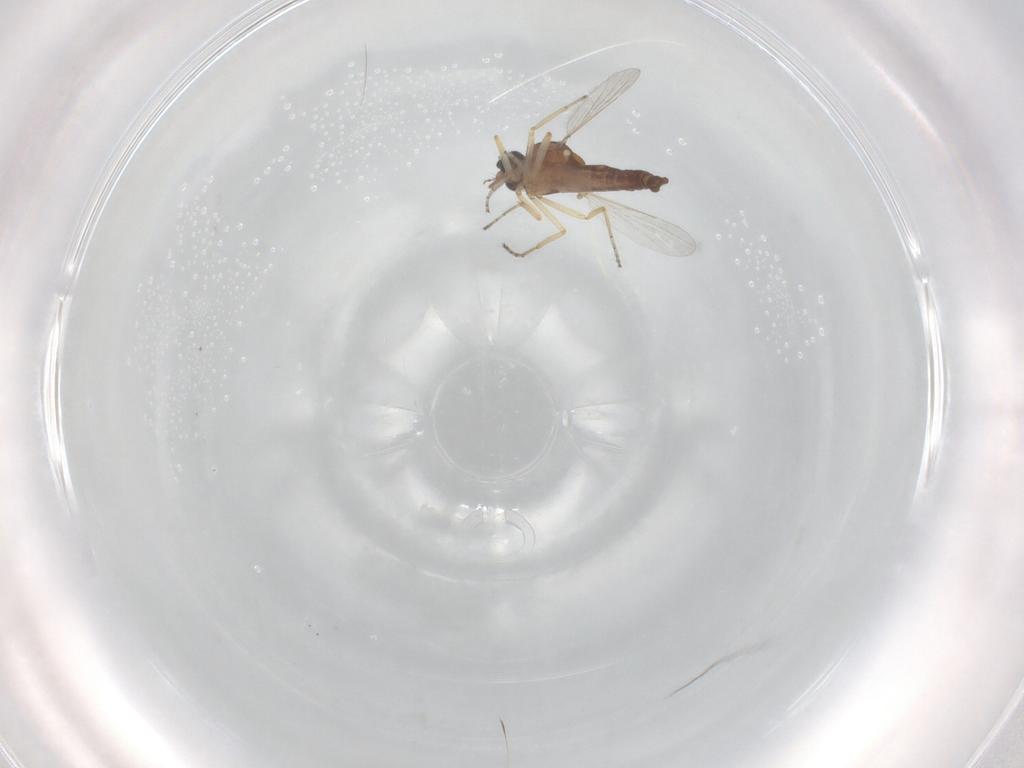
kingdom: Animalia
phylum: Arthropoda
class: Insecta
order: Diptera
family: Ceratopogonidae
